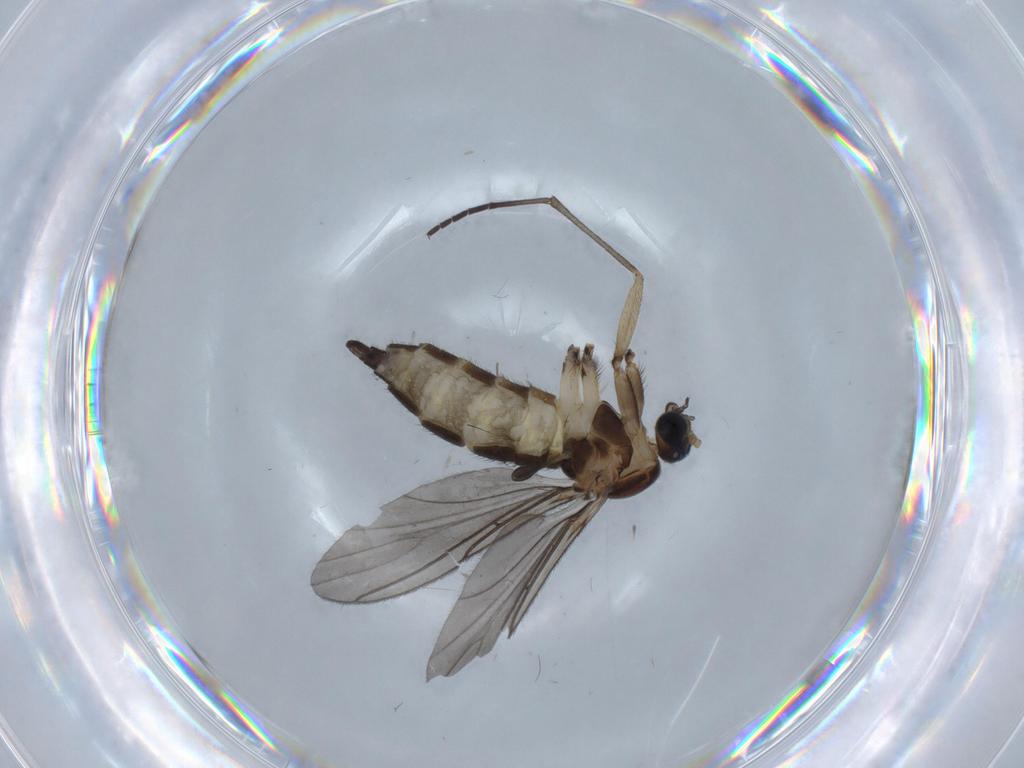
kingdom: Animalia
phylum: Arthropoda
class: Insecta
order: Diptera
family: Sciaridae
